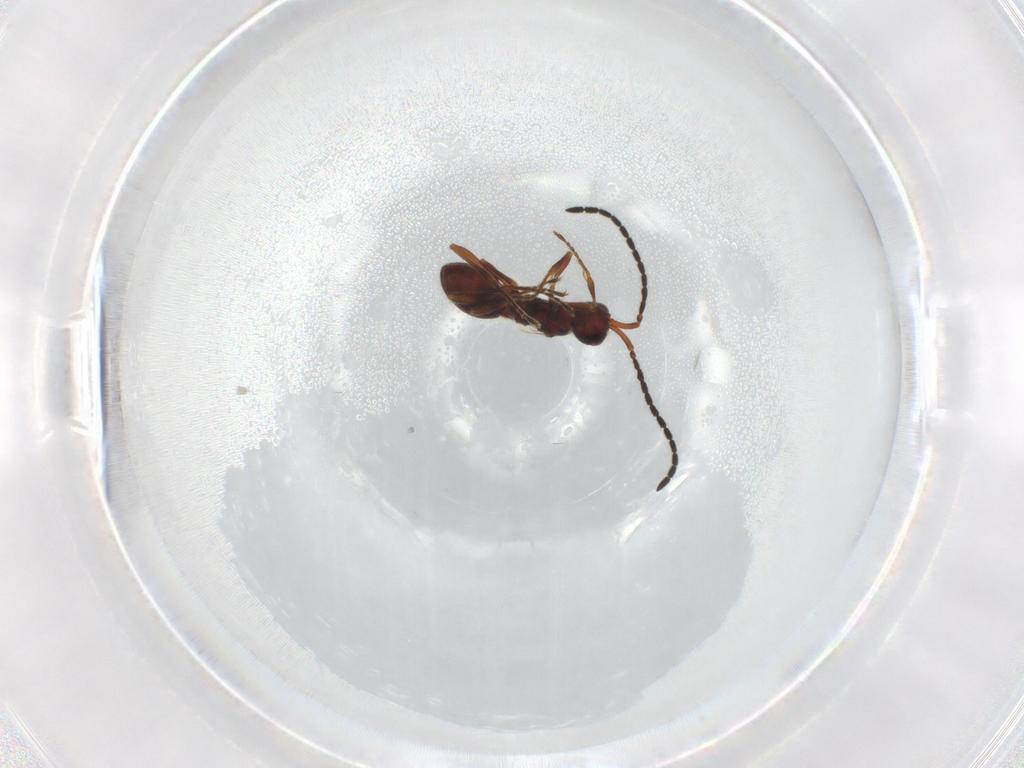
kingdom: Animalia
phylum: Arthropoda
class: Insecta
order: Hymenoptera
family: Diapriidae
